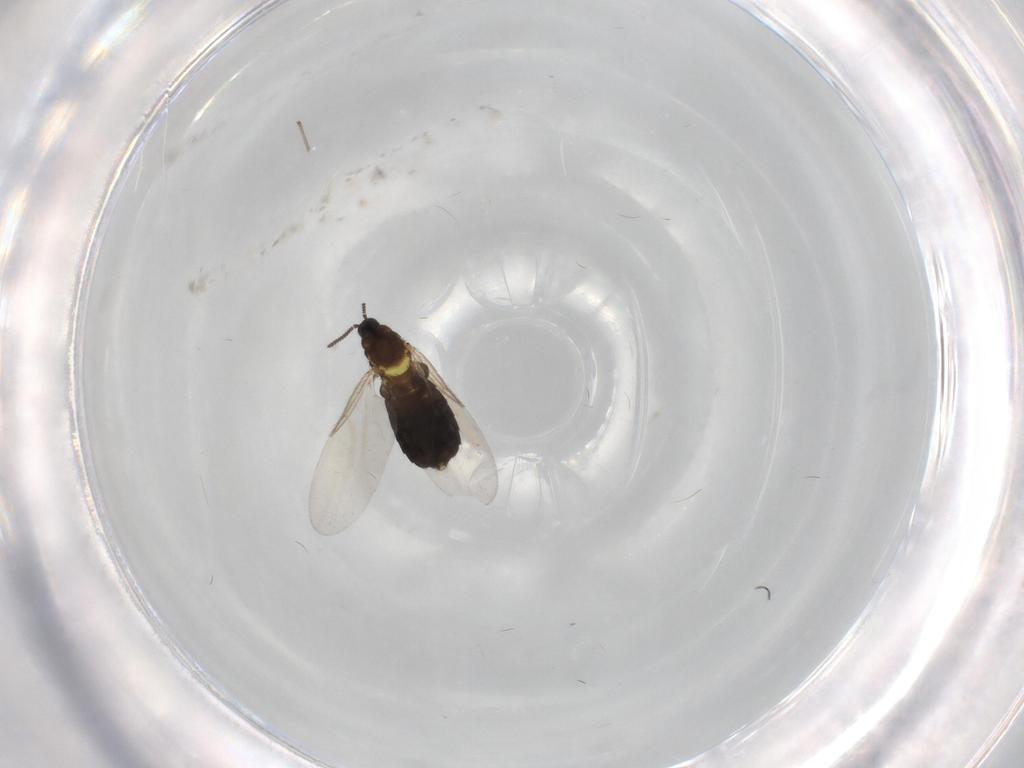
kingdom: Animalia
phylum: Arthropoda
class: Insecta
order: Diptera
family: Scatopsidae
